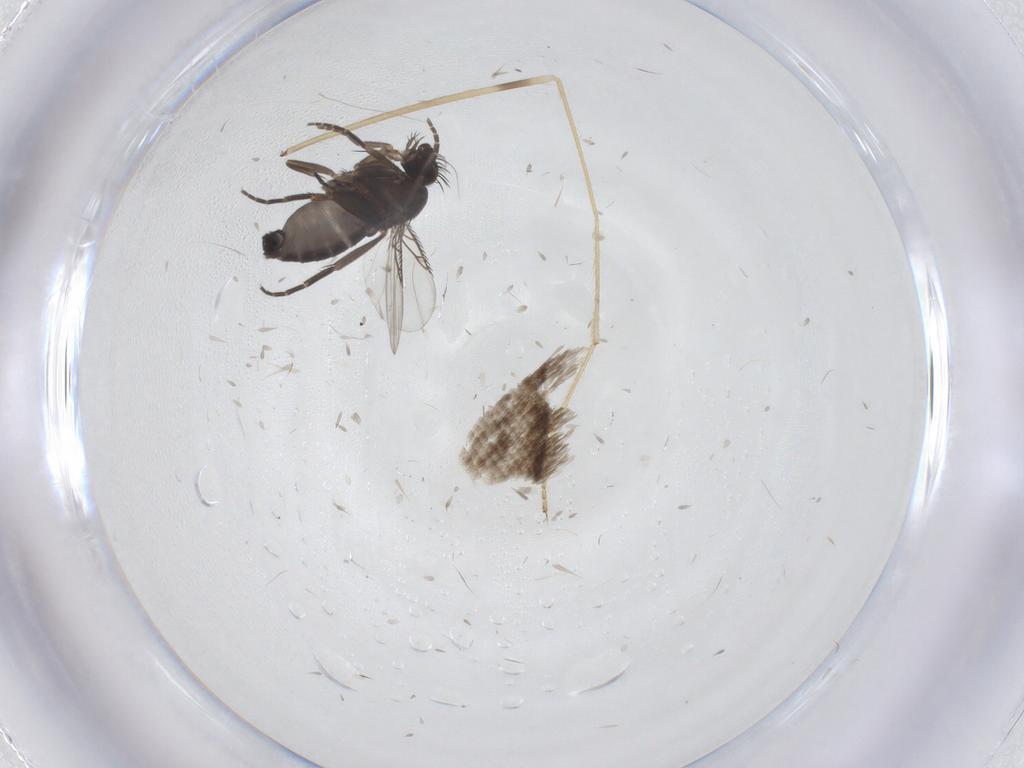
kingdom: Animalia
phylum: Arthropoda
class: Insecta
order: Diptera
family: Phoridae
